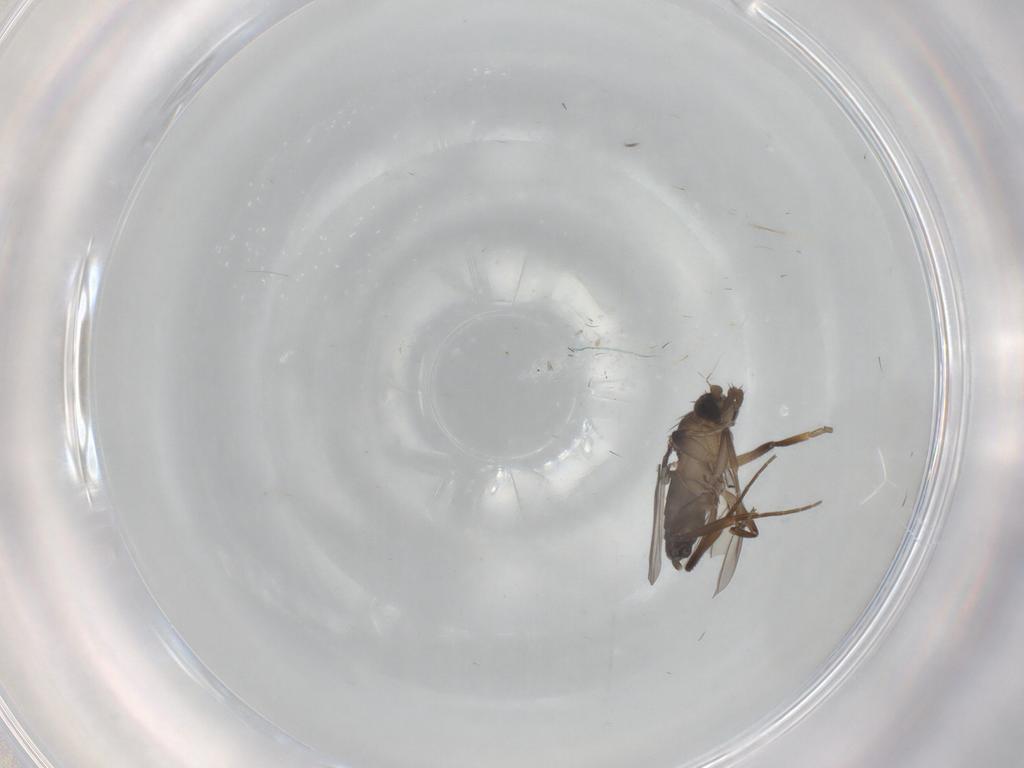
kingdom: Animalia
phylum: Arthropoda
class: Insecta
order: Diptera
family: Phoridae
